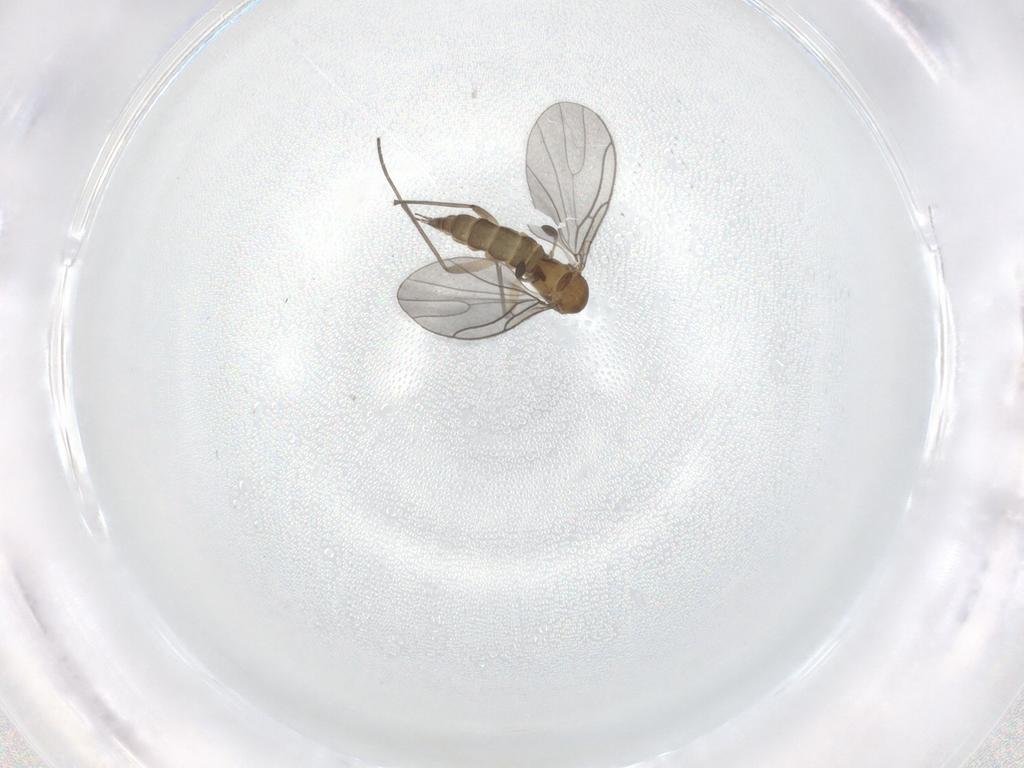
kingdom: Animalia
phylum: Arthropoda
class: Insecta
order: Diptera
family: Sciaridae
